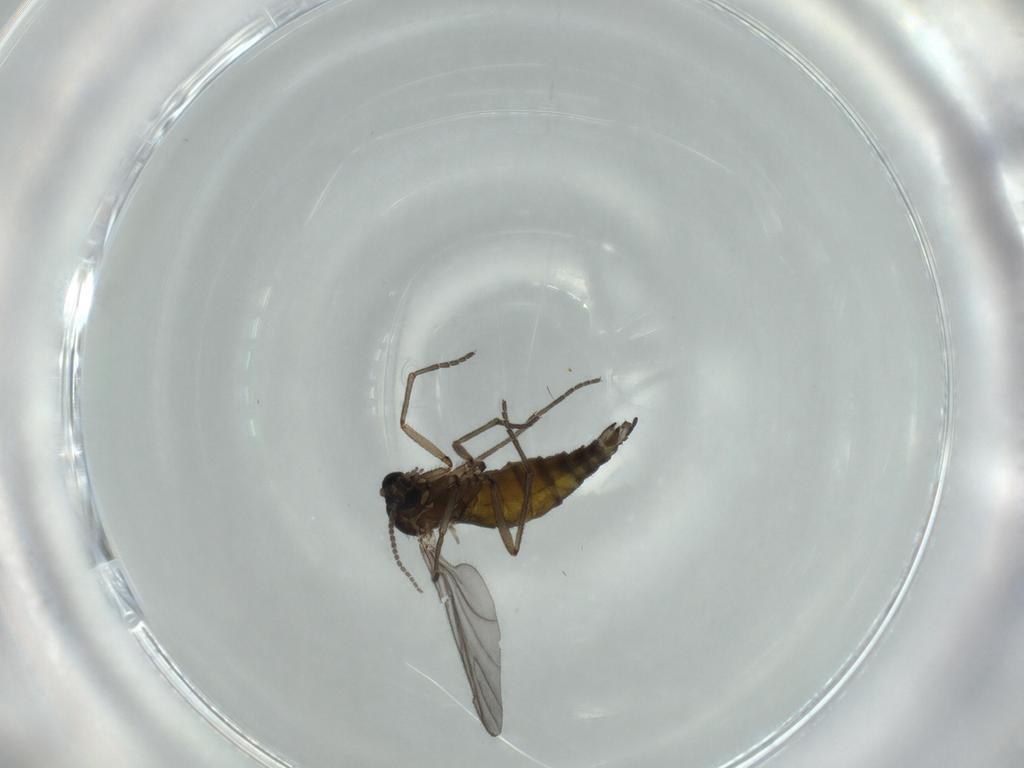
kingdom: Animalia
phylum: Arthropoda
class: Insecta
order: Diptera
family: Sciaridae
